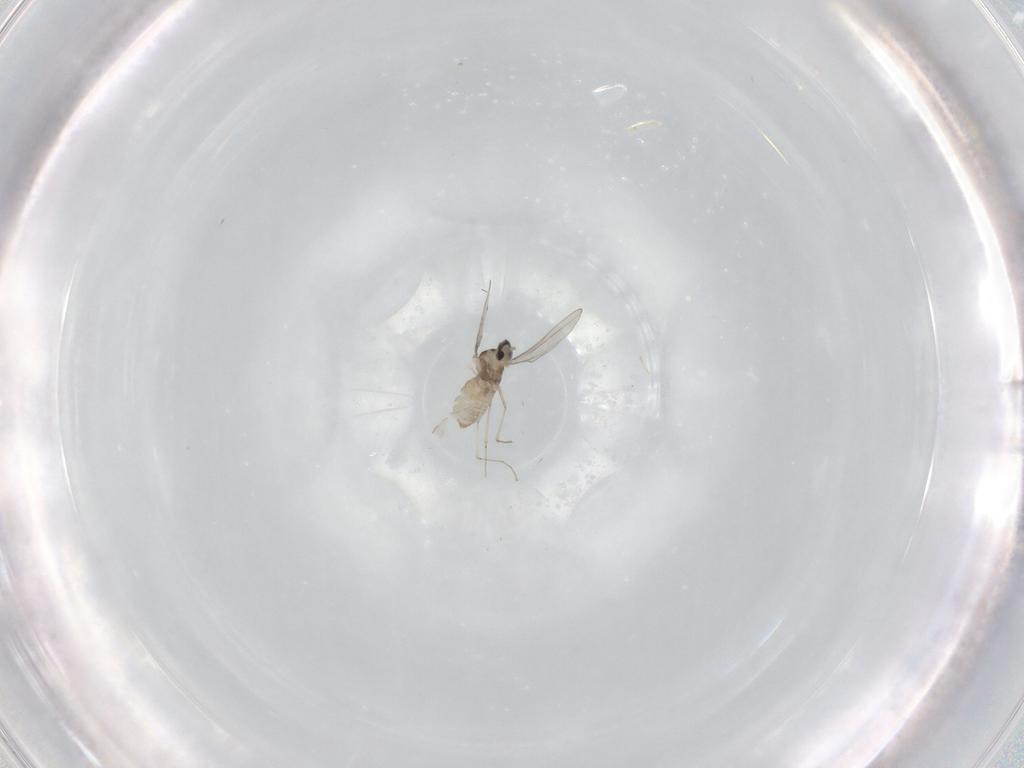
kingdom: Animalia
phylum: Arthropoda
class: Insecta
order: Diptera
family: Cecidomyiidae
